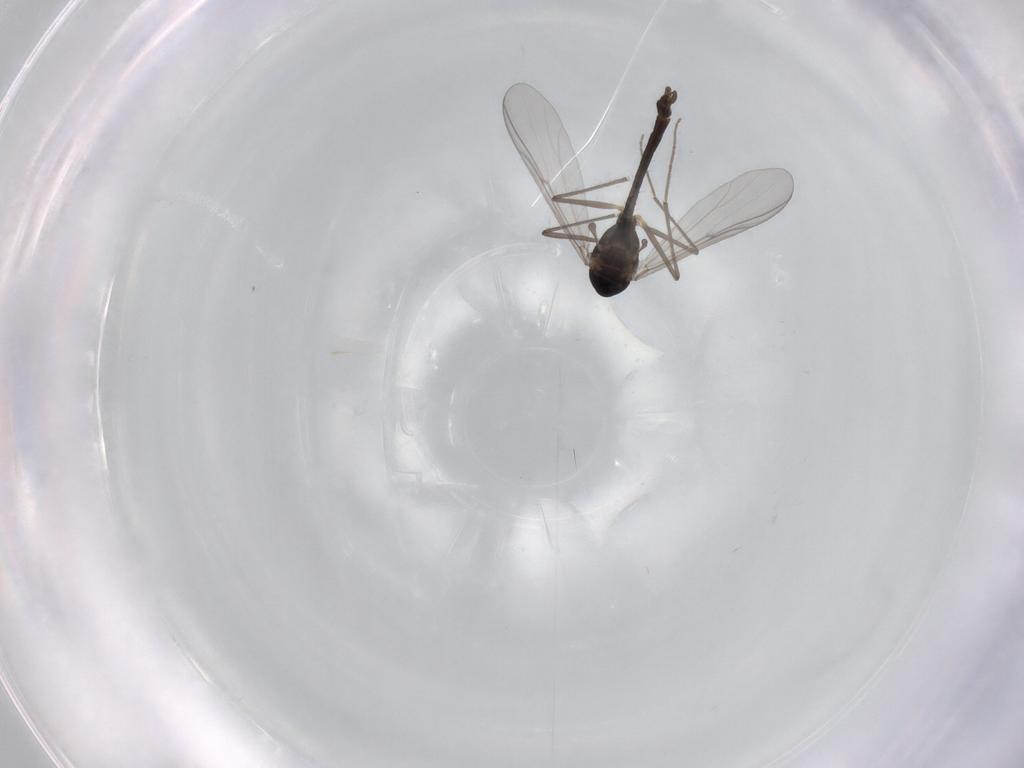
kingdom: Animalia
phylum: Arthropoda
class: Insecta
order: Diptera
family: Chironomidae
